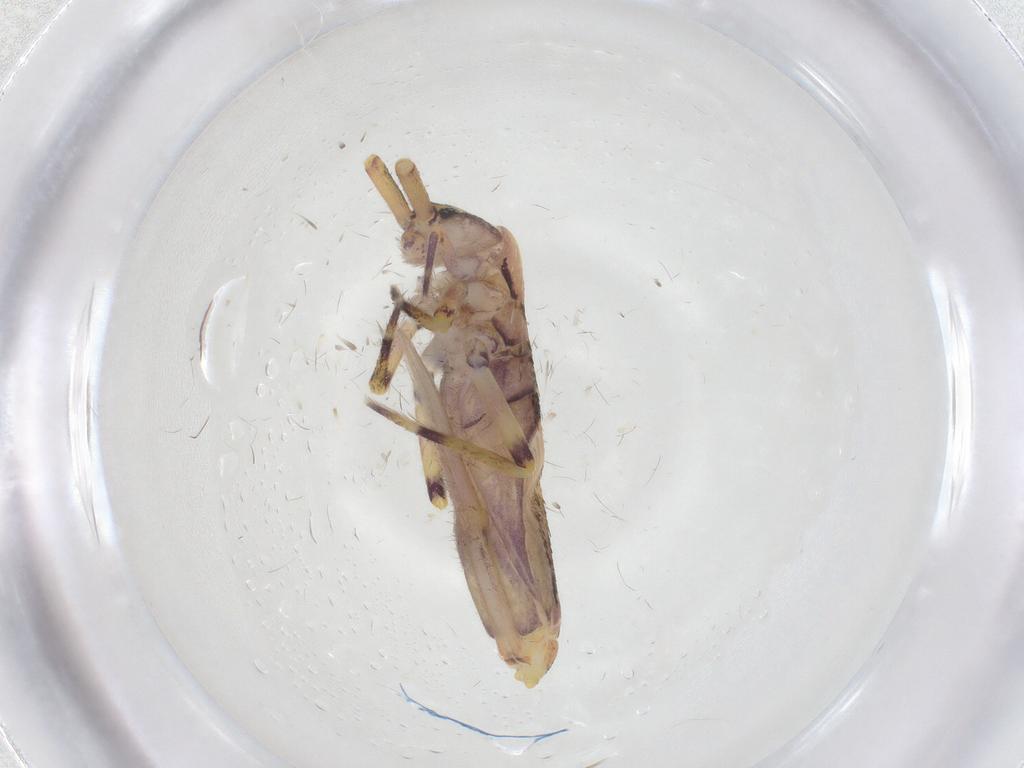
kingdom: Animalia
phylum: Arthropoda
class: Collembola
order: Entomobryomorpha
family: Entomobryidae
